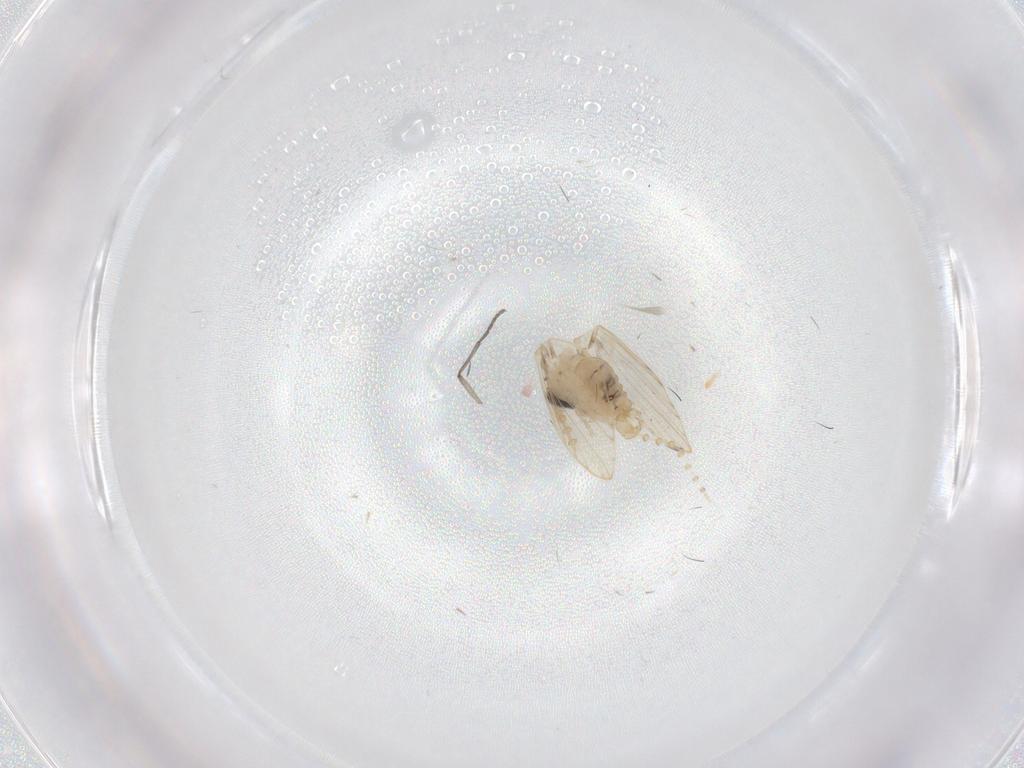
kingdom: Animalia
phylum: Arthropoda
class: Insecta
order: Diptera
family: Psychodidae
